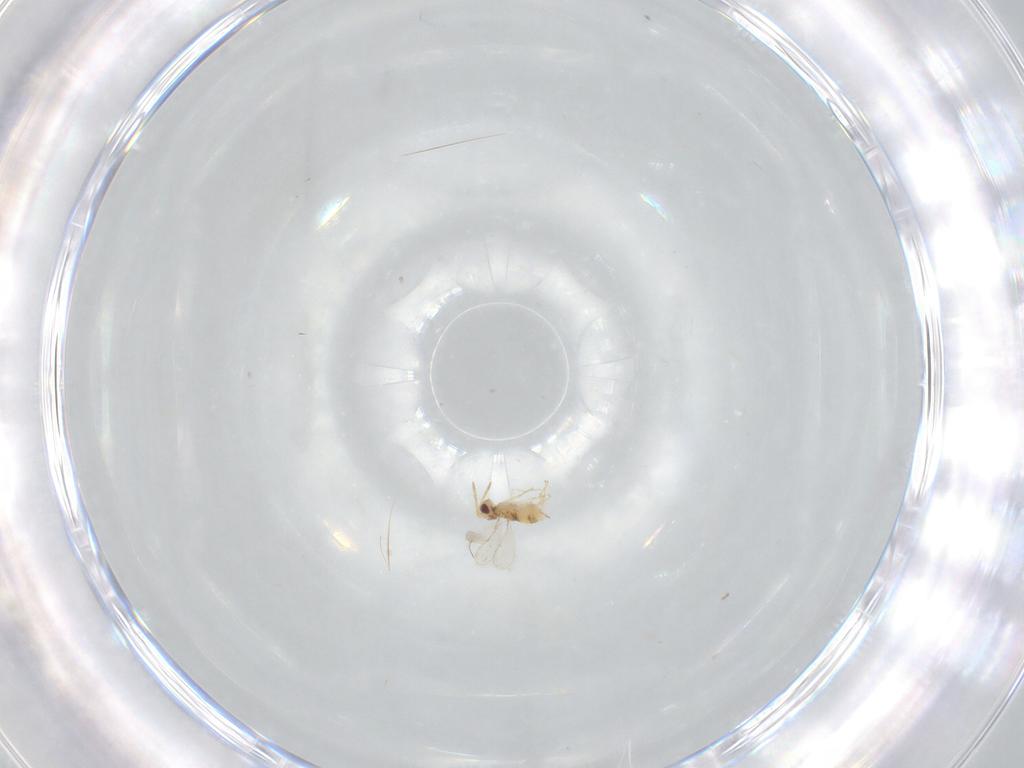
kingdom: Animalia
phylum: Arthropoda
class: Insecta
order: Hymenoptera
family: Aphelinidae
